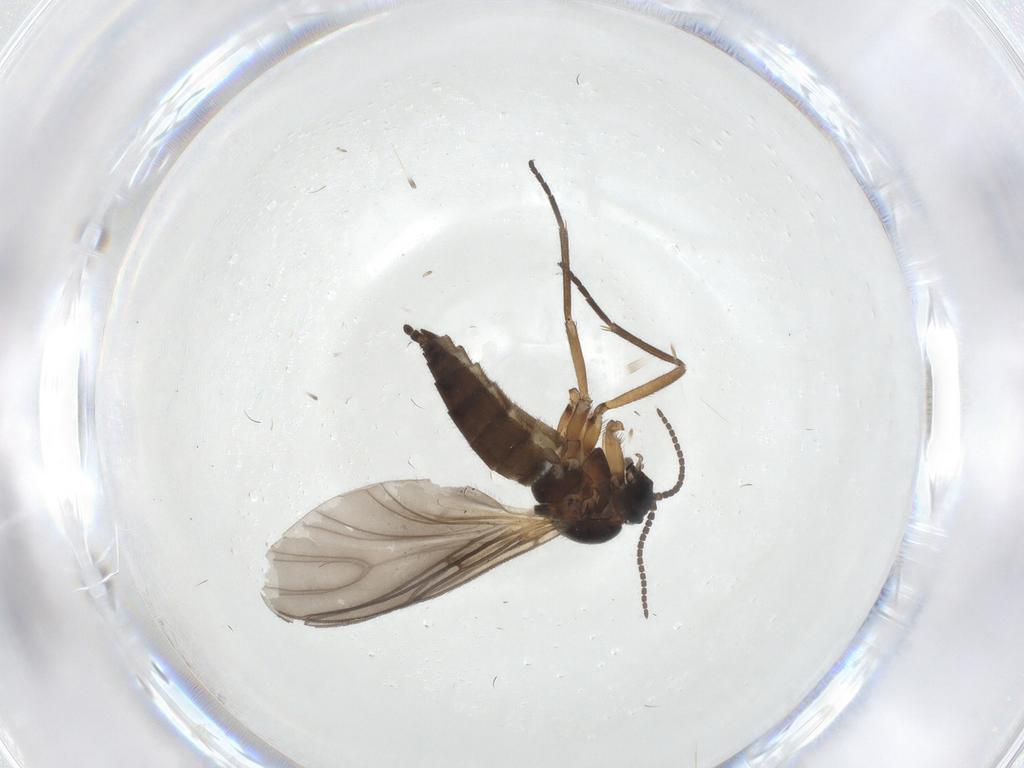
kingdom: Animalia
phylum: Arthropoda
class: Insecta
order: Diptera
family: Sciaridae
